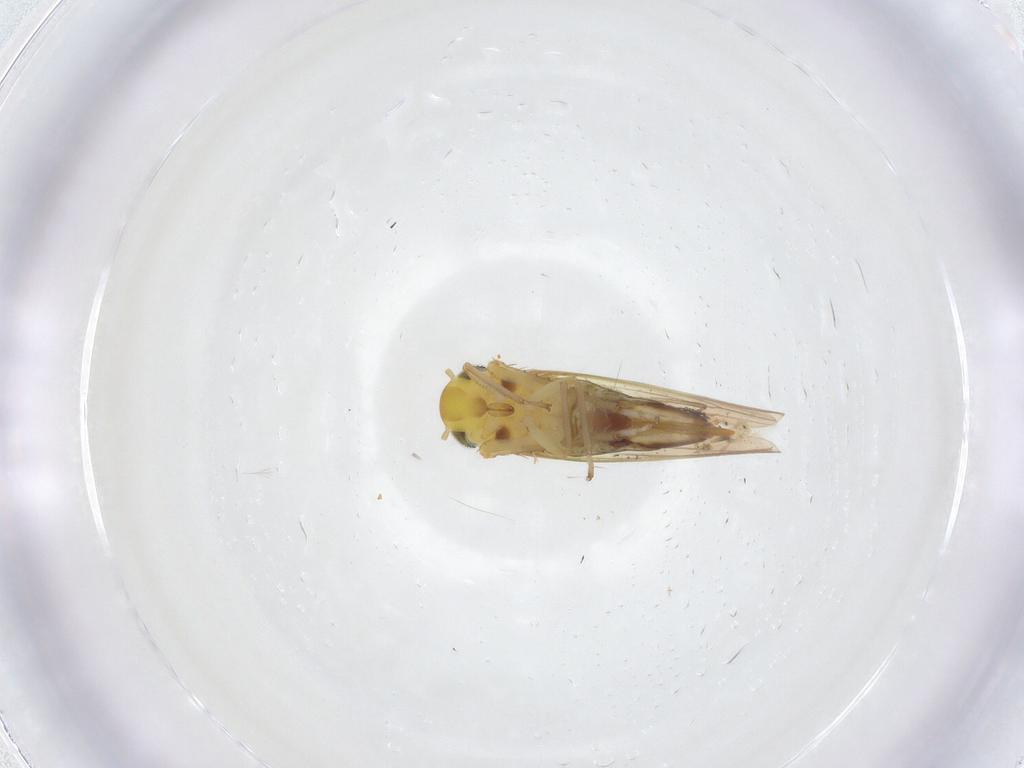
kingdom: Animalia
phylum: Arthropoda
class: Insecta
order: Hemiptera
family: Cicadellidae
